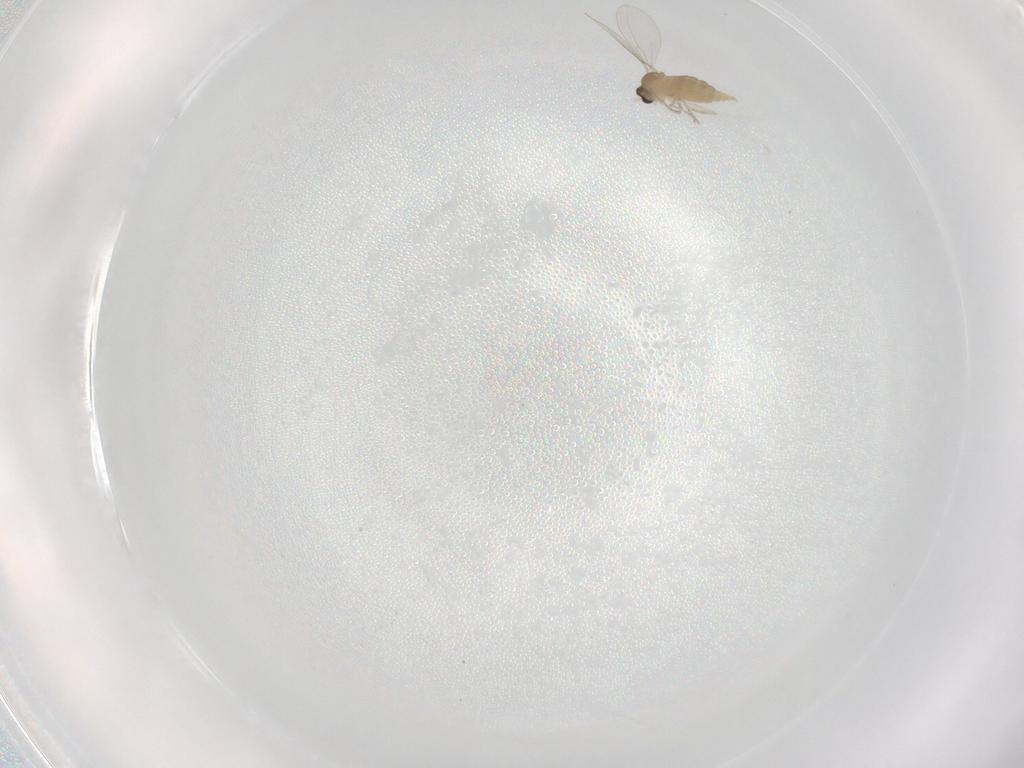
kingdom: Animalia
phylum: Arthropoda
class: Insecta
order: Diptera
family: Cecidomyiidae
